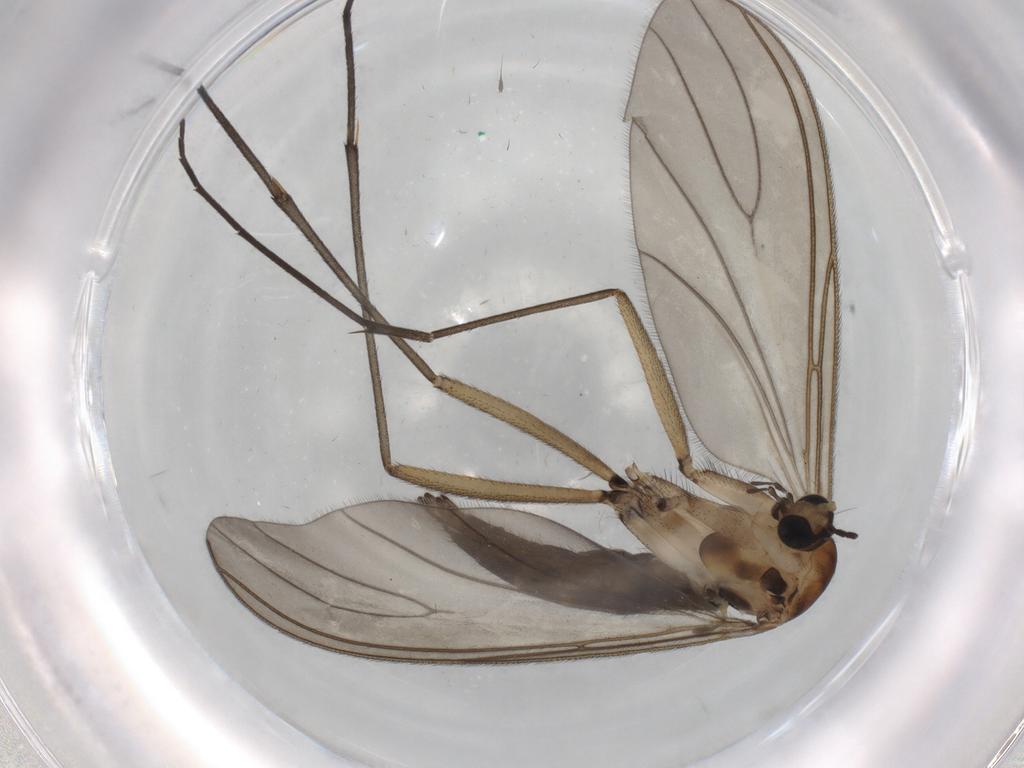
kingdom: Animalia
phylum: Arthropoda
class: Insecta
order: Diptera
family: Sciaridae
